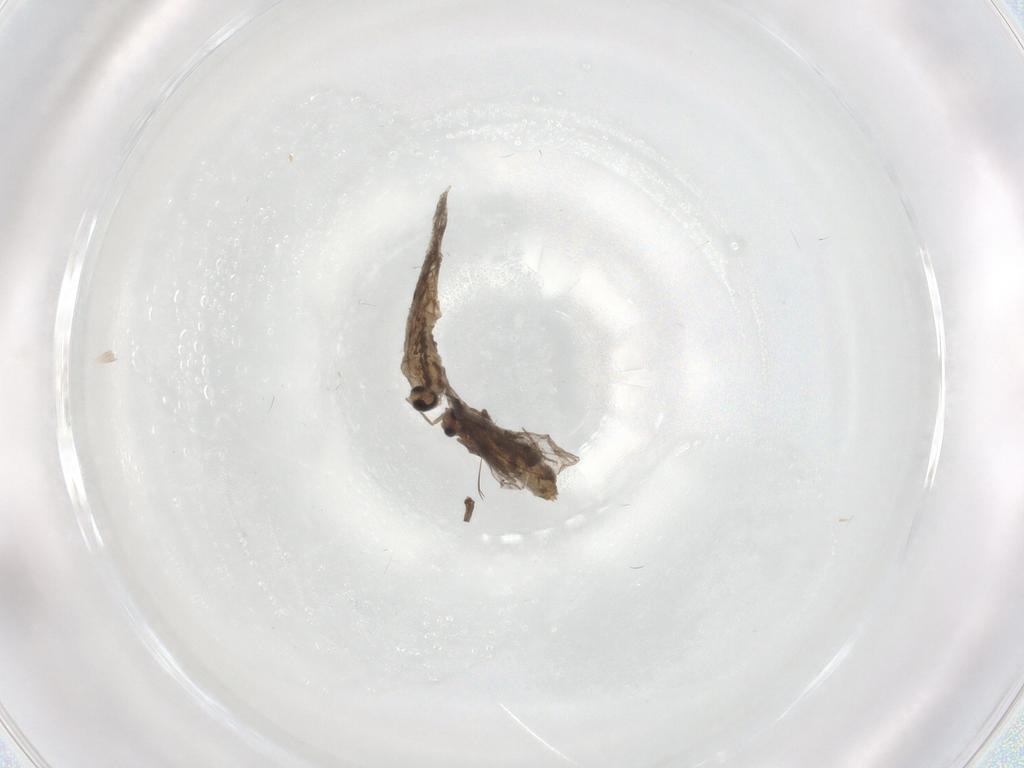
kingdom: Animalia
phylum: Arthropoda
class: Insecta
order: Diptera
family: Chironomidae
